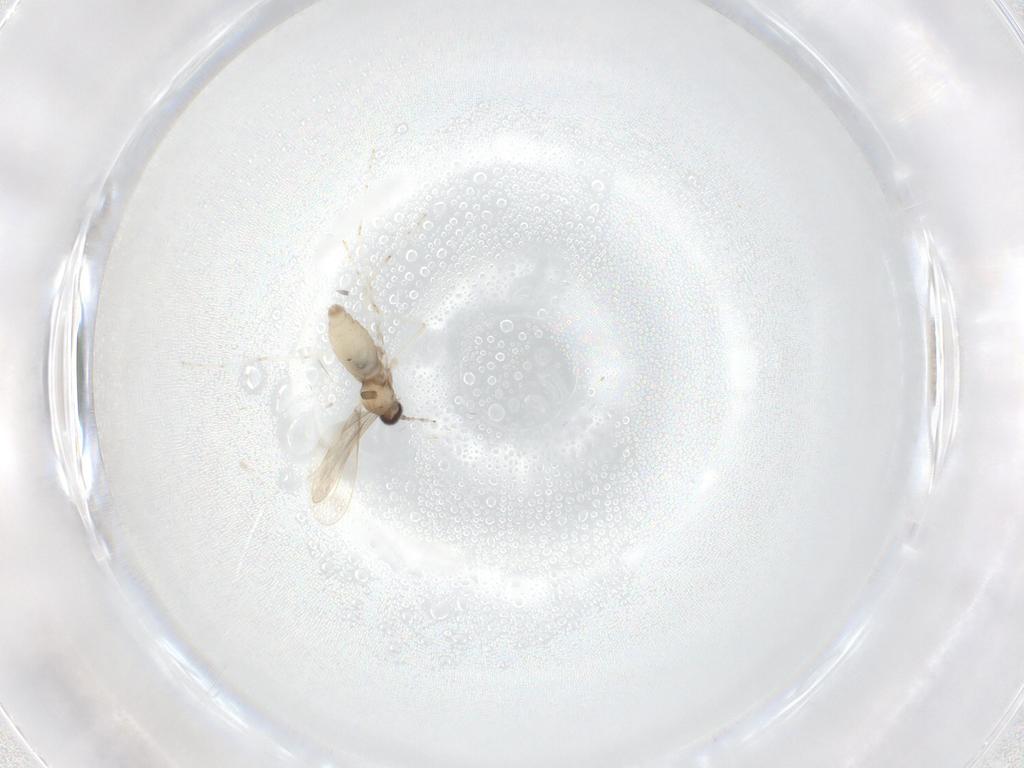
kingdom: Animalia
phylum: Arthropoda
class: Insecta
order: Diptera
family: Cecidomyiidae
